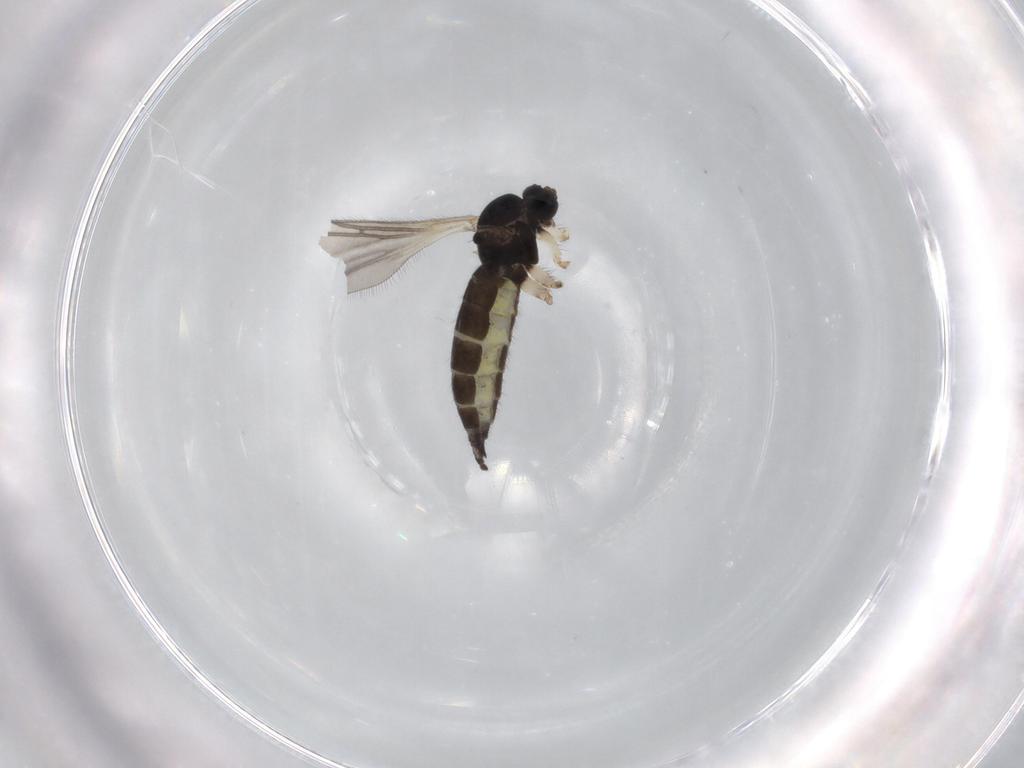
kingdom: Animalia
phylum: Arthropoda
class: Insecta
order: Diptera
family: Sciaridae
